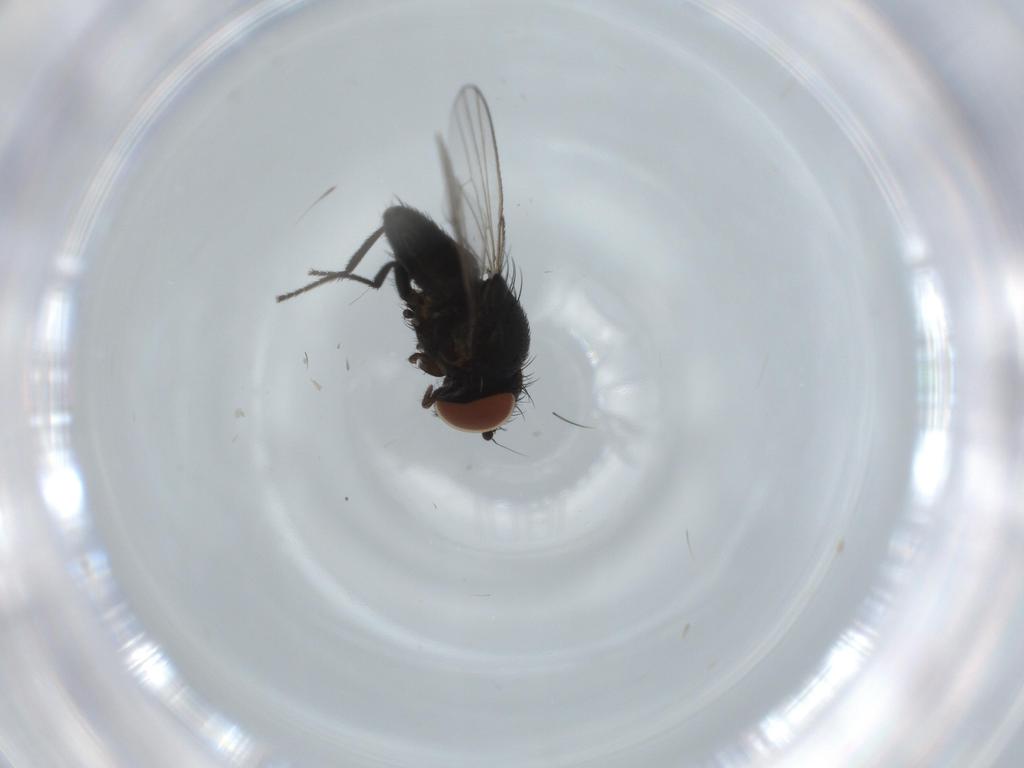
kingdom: Animalia
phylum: Arthropoda
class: Insecta
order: Diptera
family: Milichiidae
